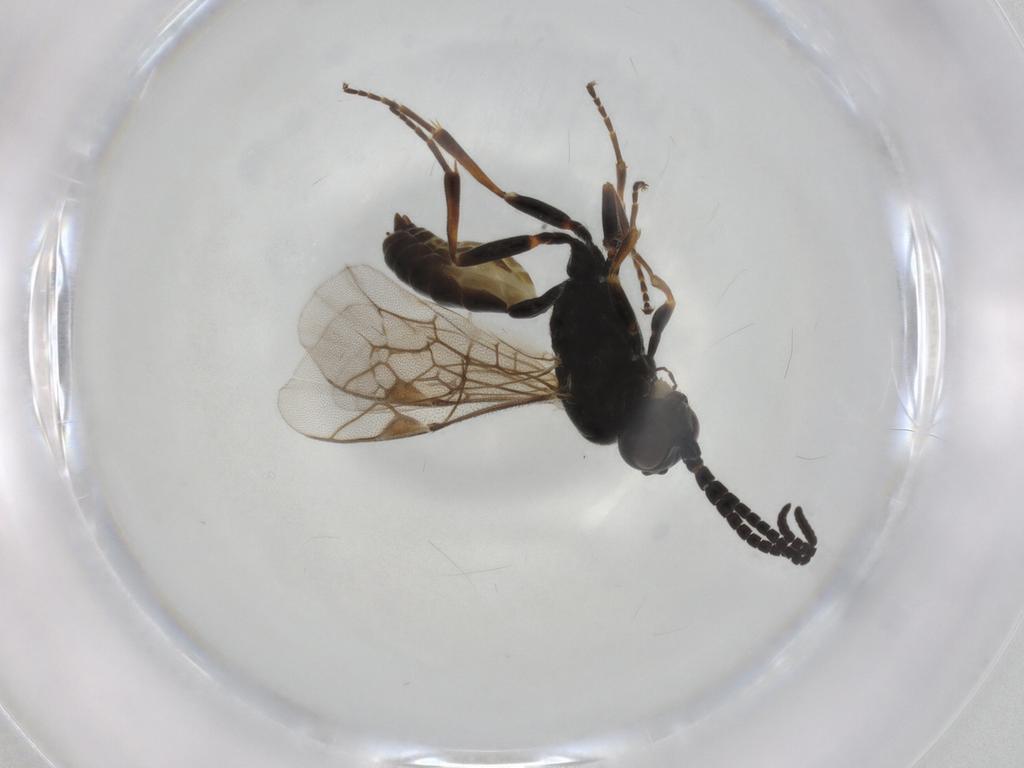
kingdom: Animalia
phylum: Arthropoda
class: Insecta
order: Hymenoptera
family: Ichneumonidae
